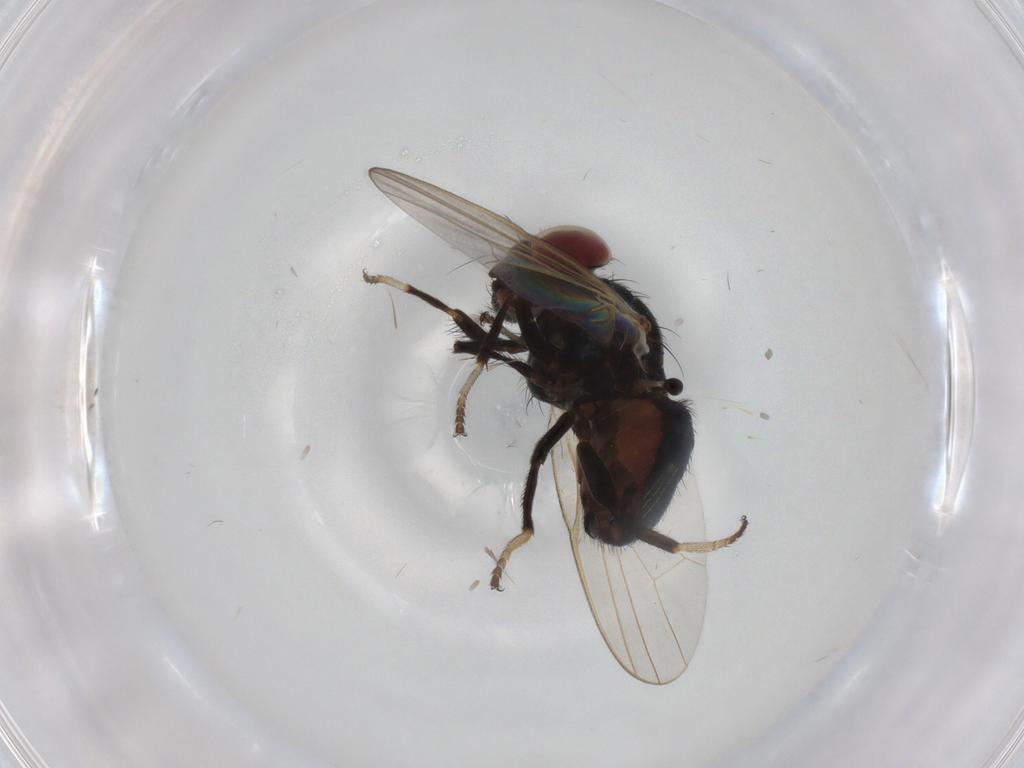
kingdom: Animalia
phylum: Arthropoda
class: Insecta
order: Diptera
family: Lonchaeidae
